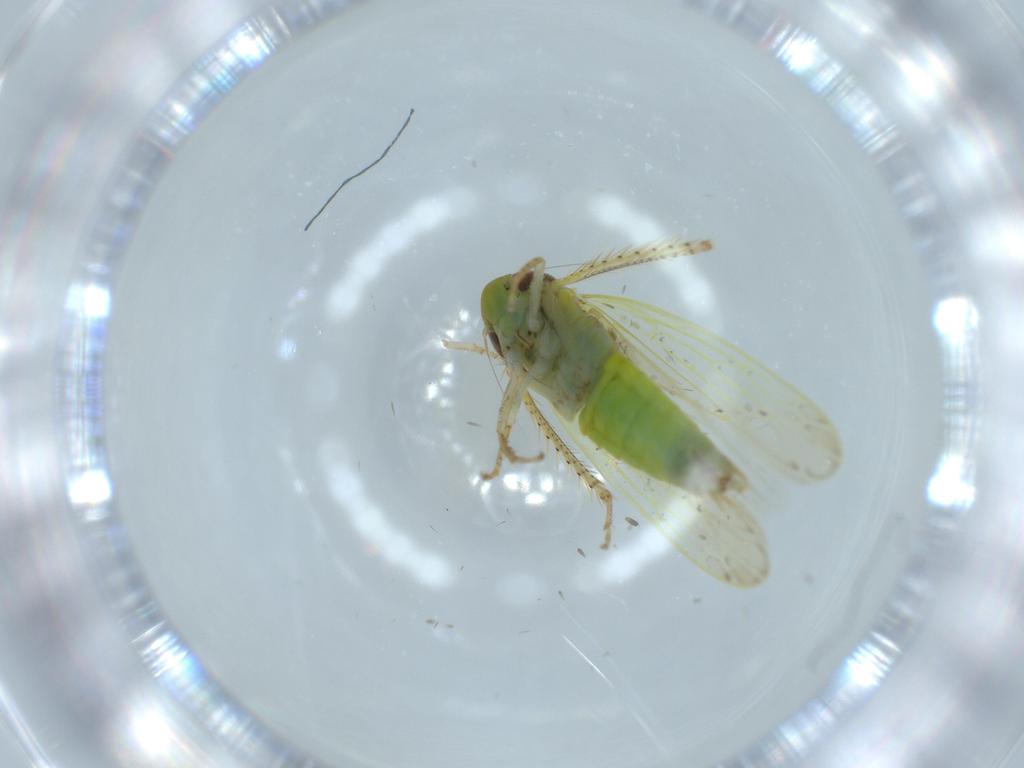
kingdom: Animalia
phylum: Arthropoda
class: Insecta
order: Hemiptera
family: Cicadellidae
